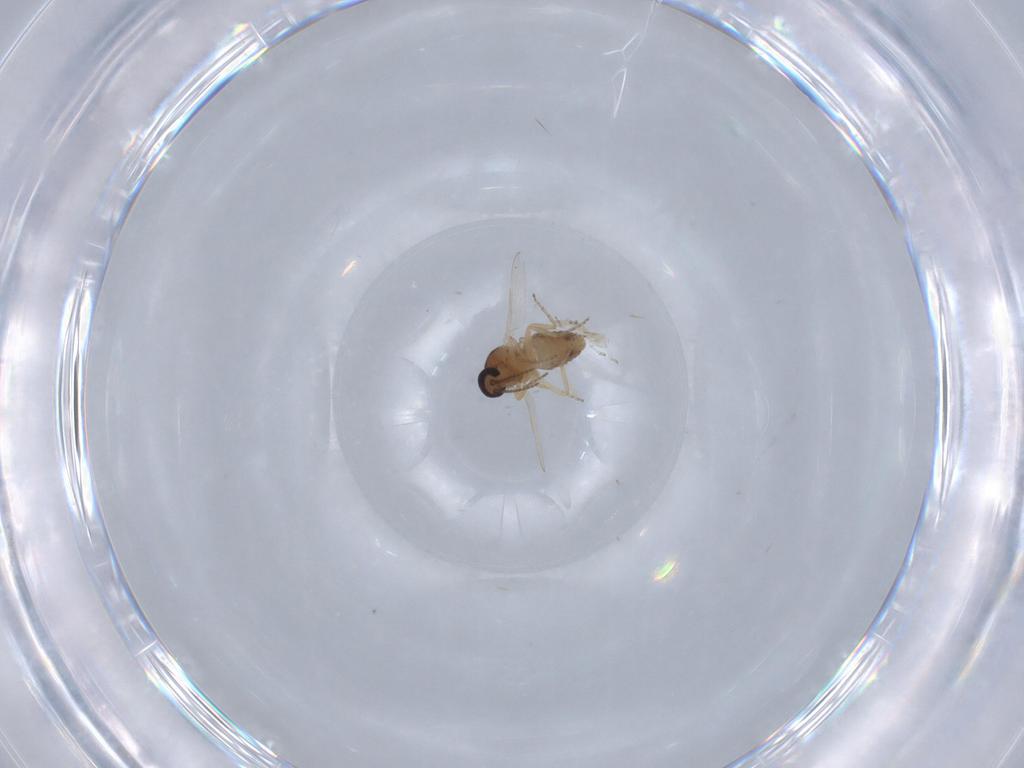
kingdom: Animalia
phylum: Arthropoda
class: Insecta
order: Diptera
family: Ceratopogonidae
